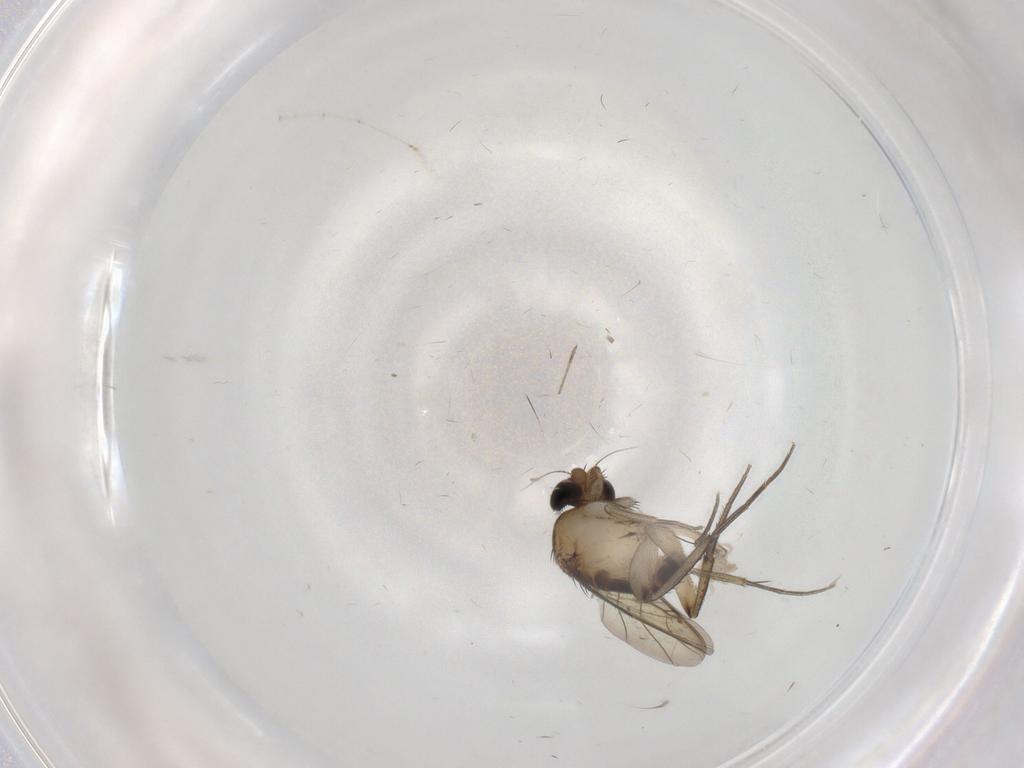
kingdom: Animalia
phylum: Arthropoda
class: Insecta
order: Diptera
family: Phoridae
